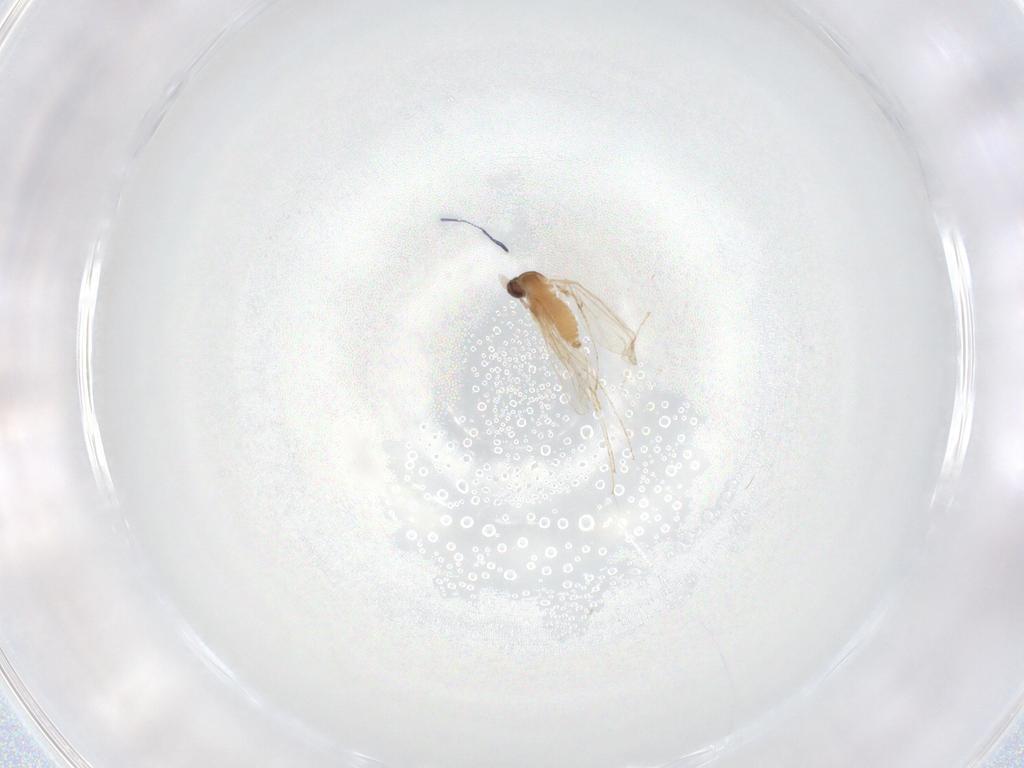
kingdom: Animalia
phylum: Arthropoda
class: Insecta
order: Diptera
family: Cecidomyiidae
